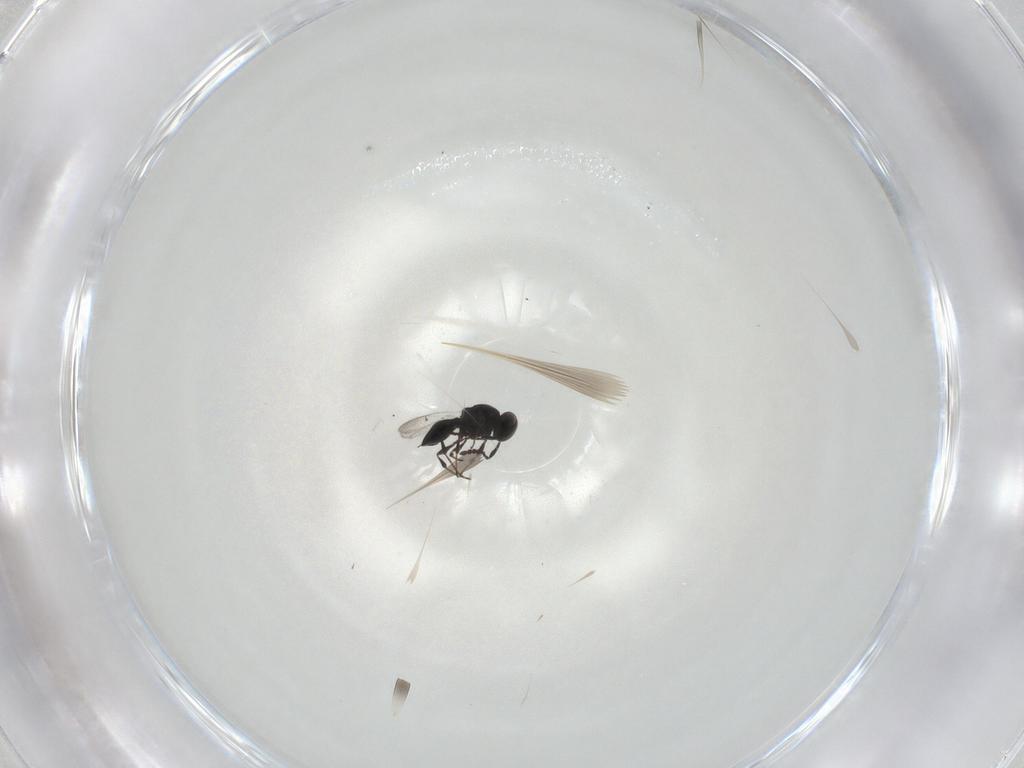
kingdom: Animalia
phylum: Arthropoda
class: Insecta
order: Hymenoptera
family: Platygastridae
